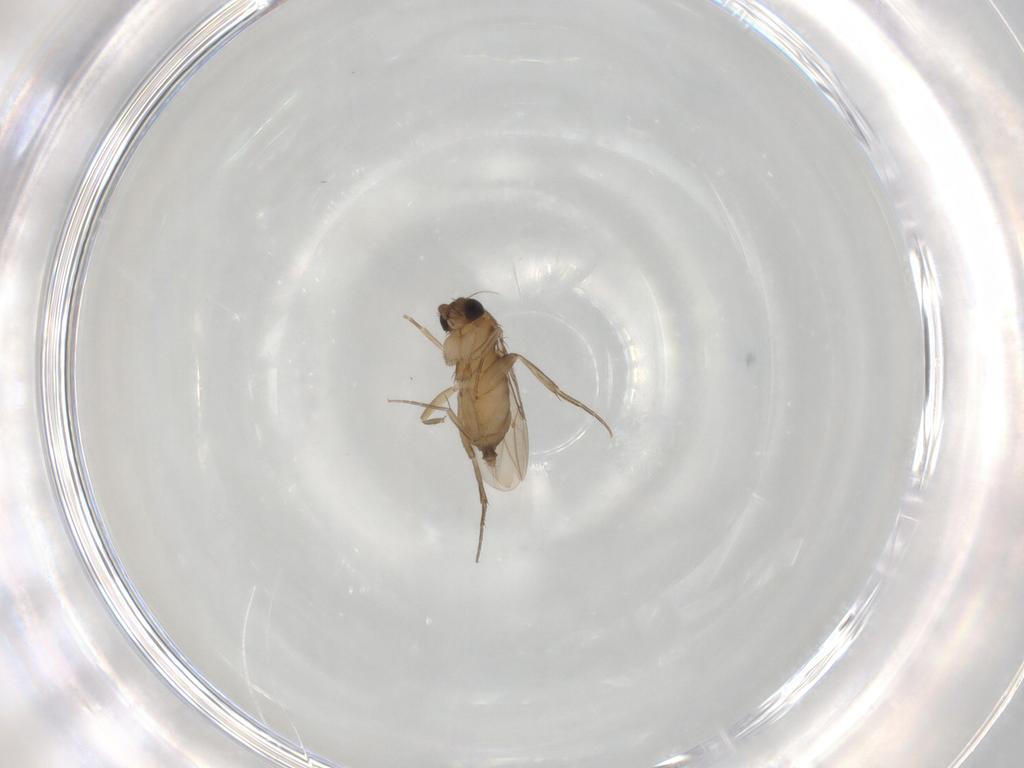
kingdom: Animalia
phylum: Arthropoda
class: Insecta
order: Diptera
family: Phoridae
